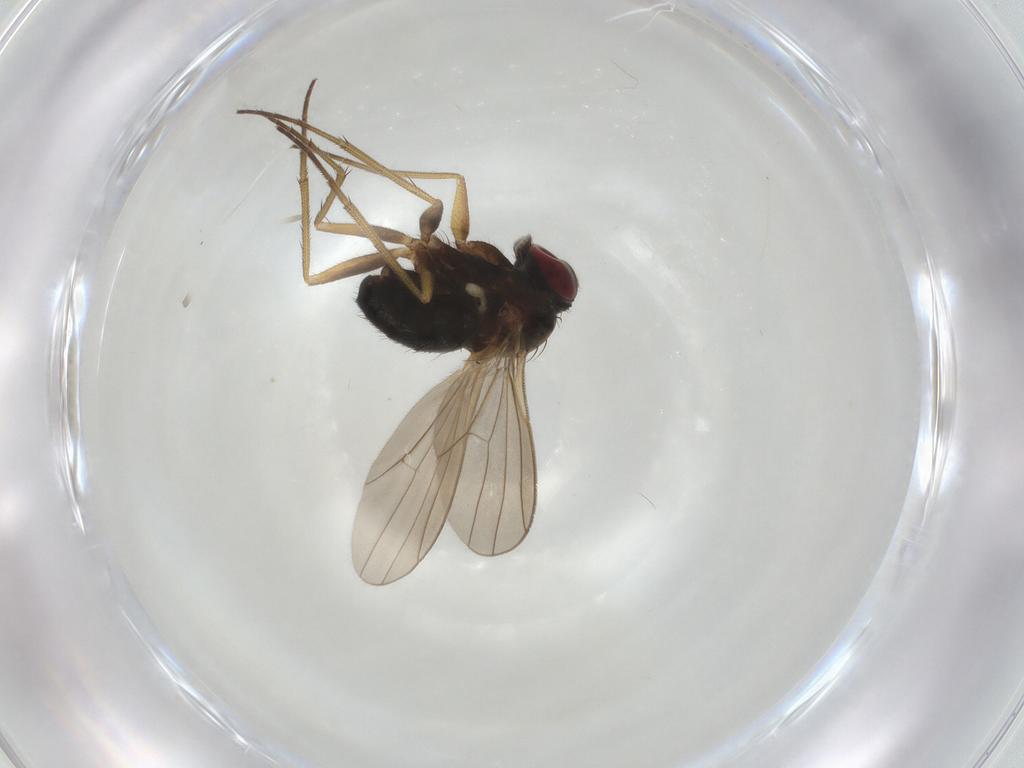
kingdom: Animalia
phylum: Arthropoda
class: Insecta
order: Diptera
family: Dolichopodidae
